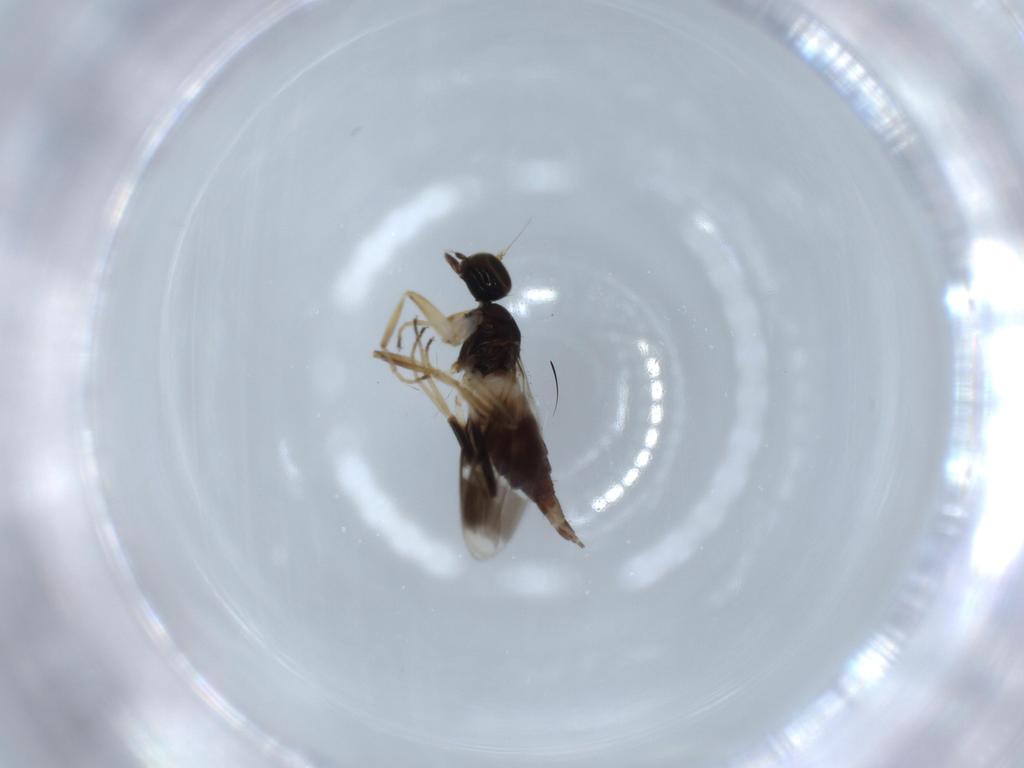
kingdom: Animalia
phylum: Arthropoda
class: Insecta
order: Diptera
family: Hybotidae
